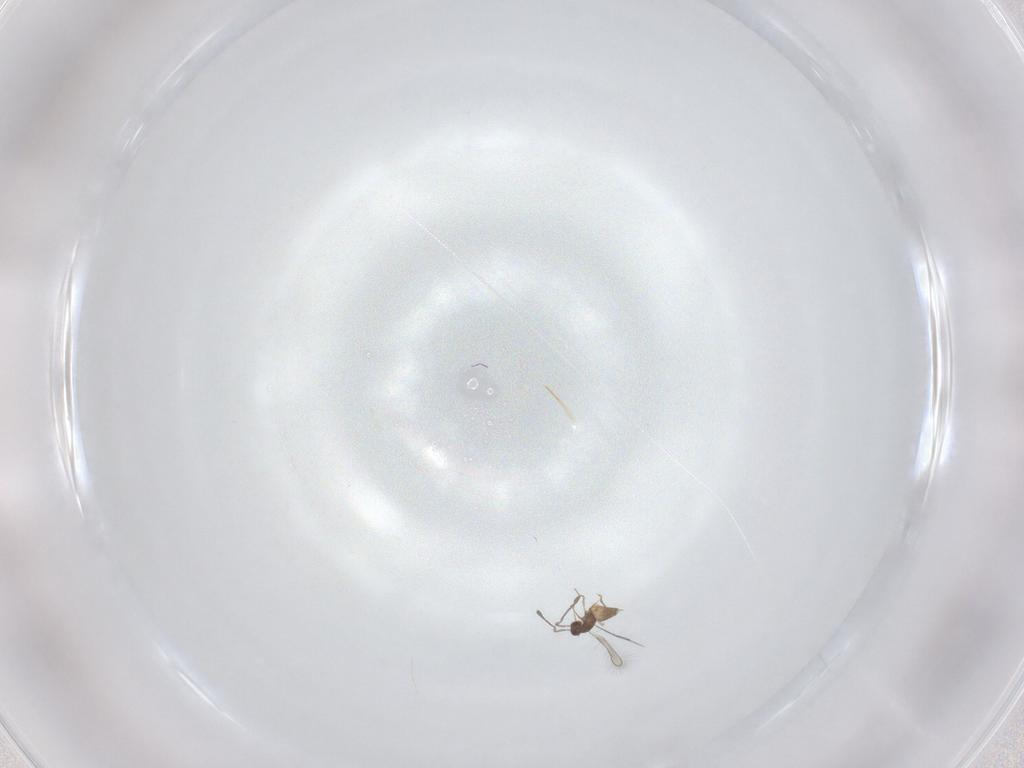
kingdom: Animalia
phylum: Arthropoda
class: Insecta
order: Hymenoptera
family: Mymaridae
